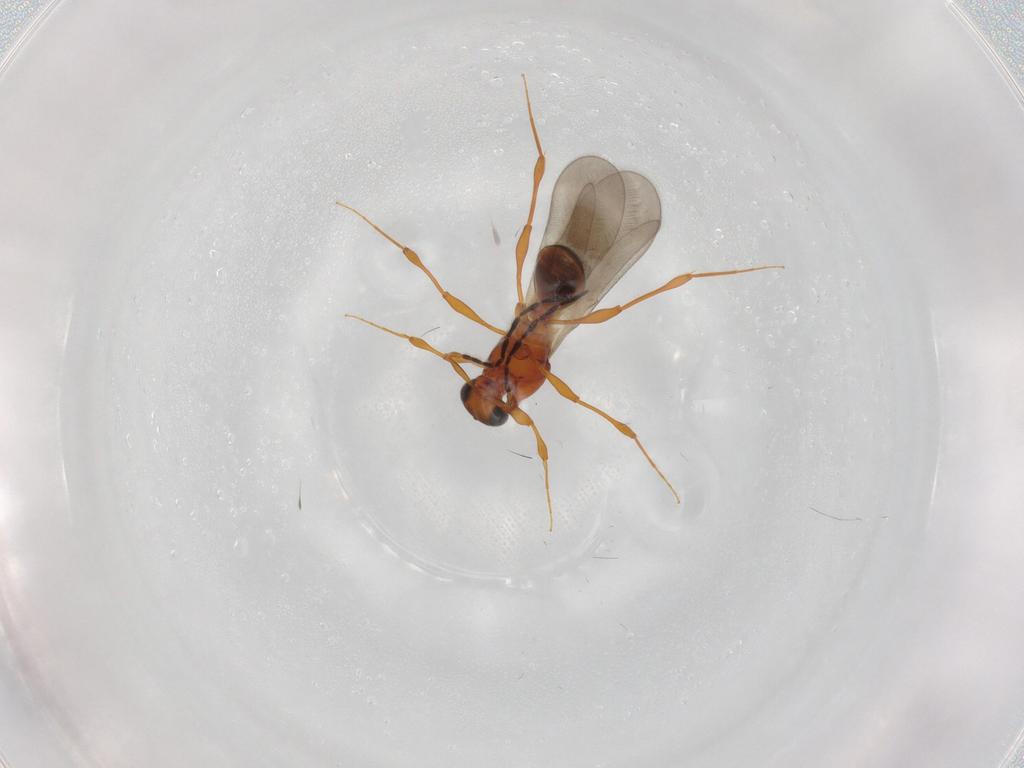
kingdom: Animalia
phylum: Arthropoda
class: Insecta
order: Hymenoptera
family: Platygastridae
